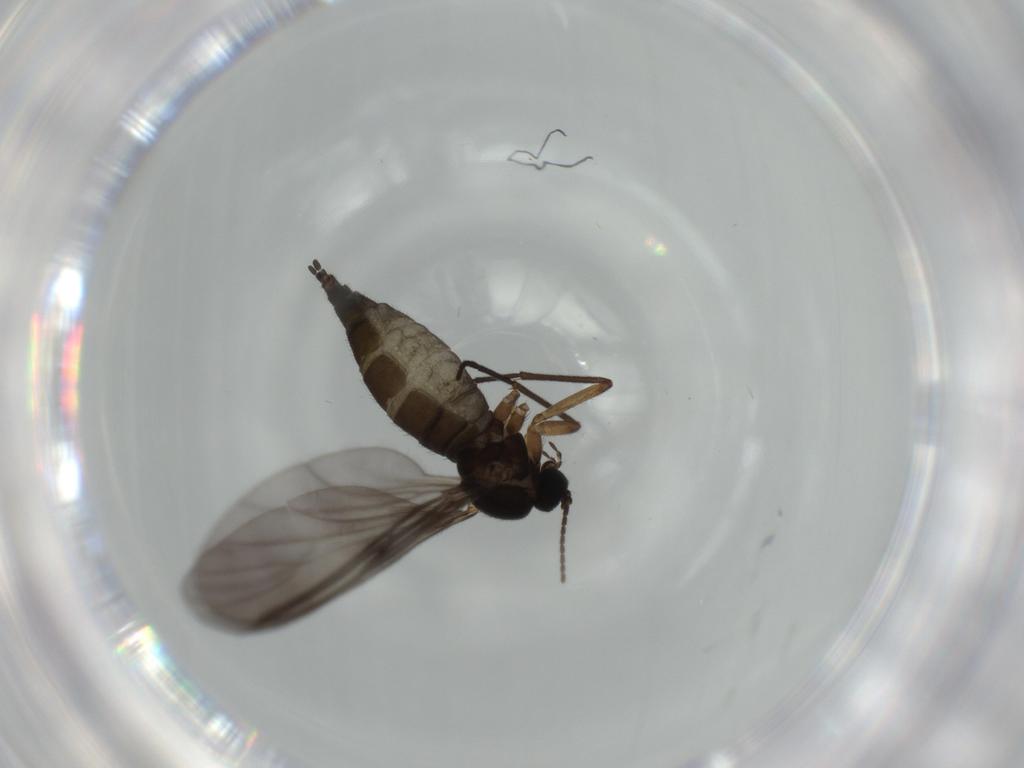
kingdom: Animalia
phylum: Arthropoda
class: Insecta
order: Diptera
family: Sciaridae
